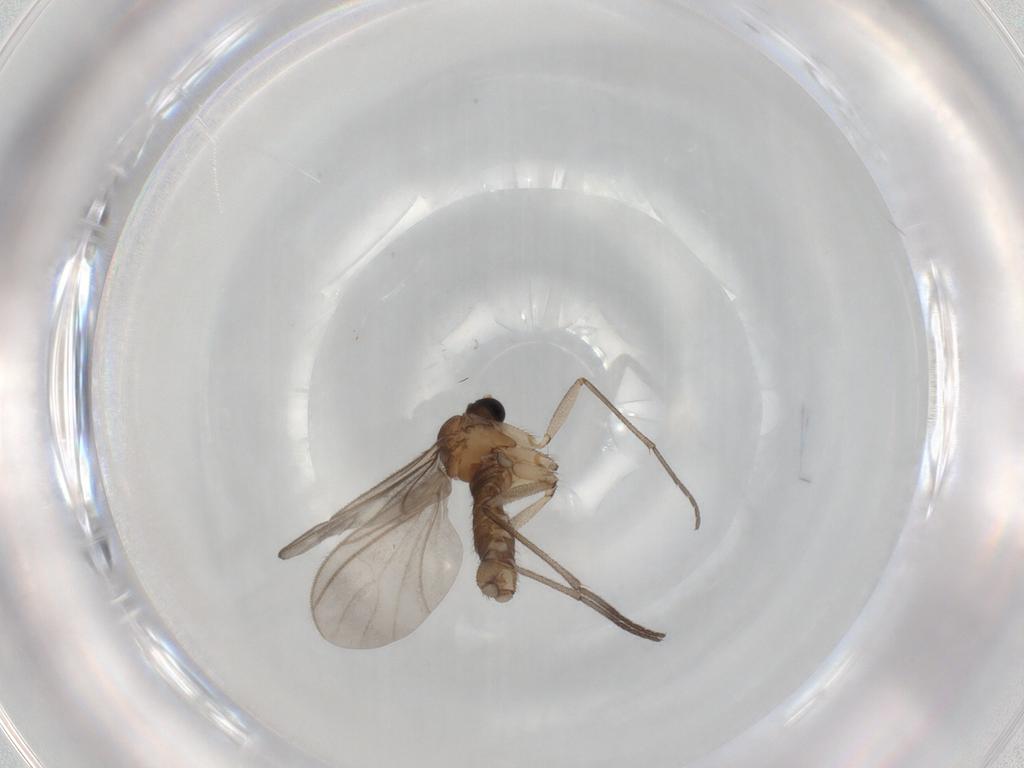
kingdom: Animalia
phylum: Arthropoda
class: Insecta
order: Diptera
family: Sciaridae
